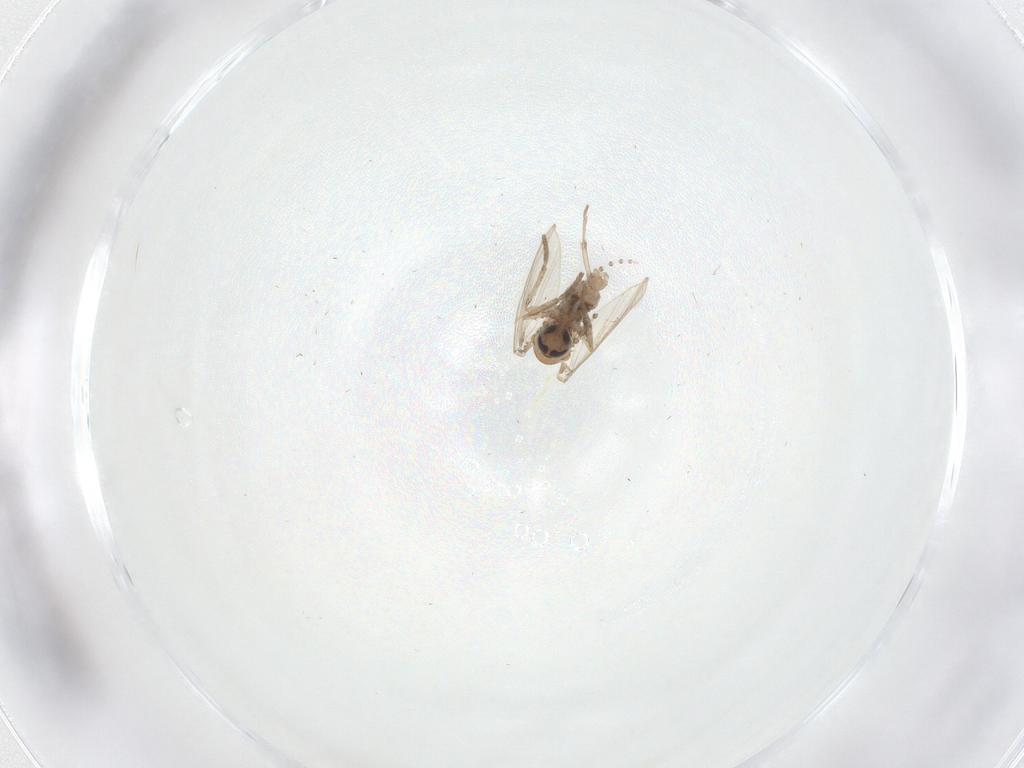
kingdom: Animalia
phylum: Arthropoda
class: Insecta
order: Diptera
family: Psychodidae
